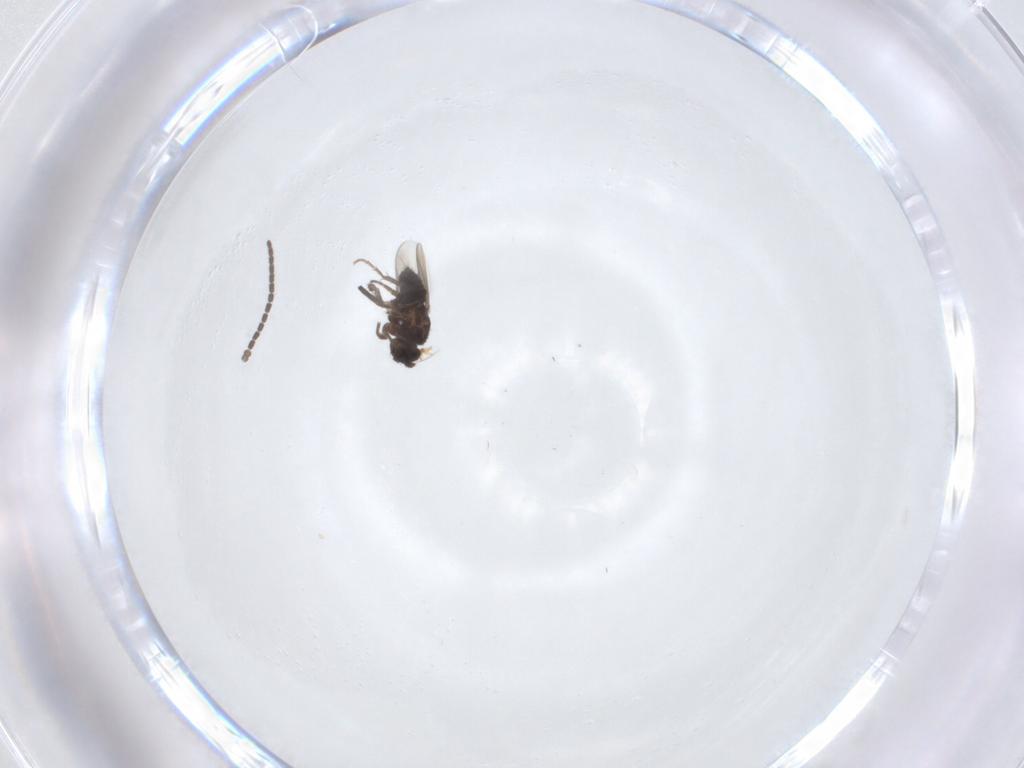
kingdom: Animalia
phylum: Arthropoda
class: Insecta
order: Diptera
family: Sciaridae
